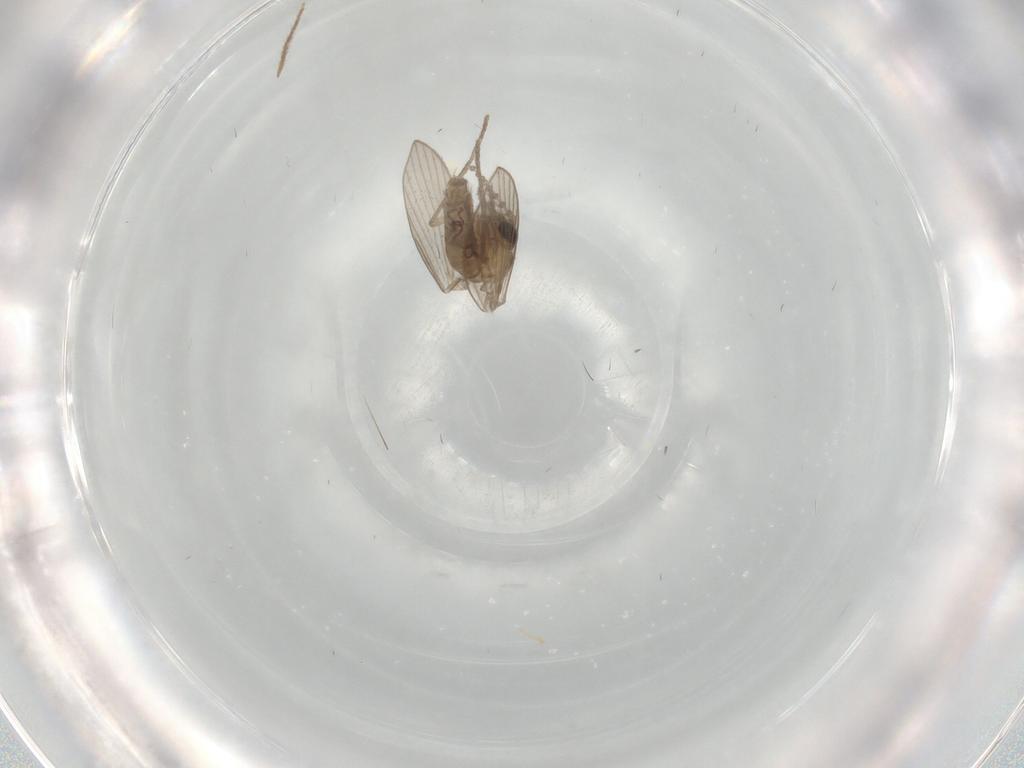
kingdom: Animalia
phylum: Arthropoda
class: Insecta
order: Diptera
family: Psychodidae
